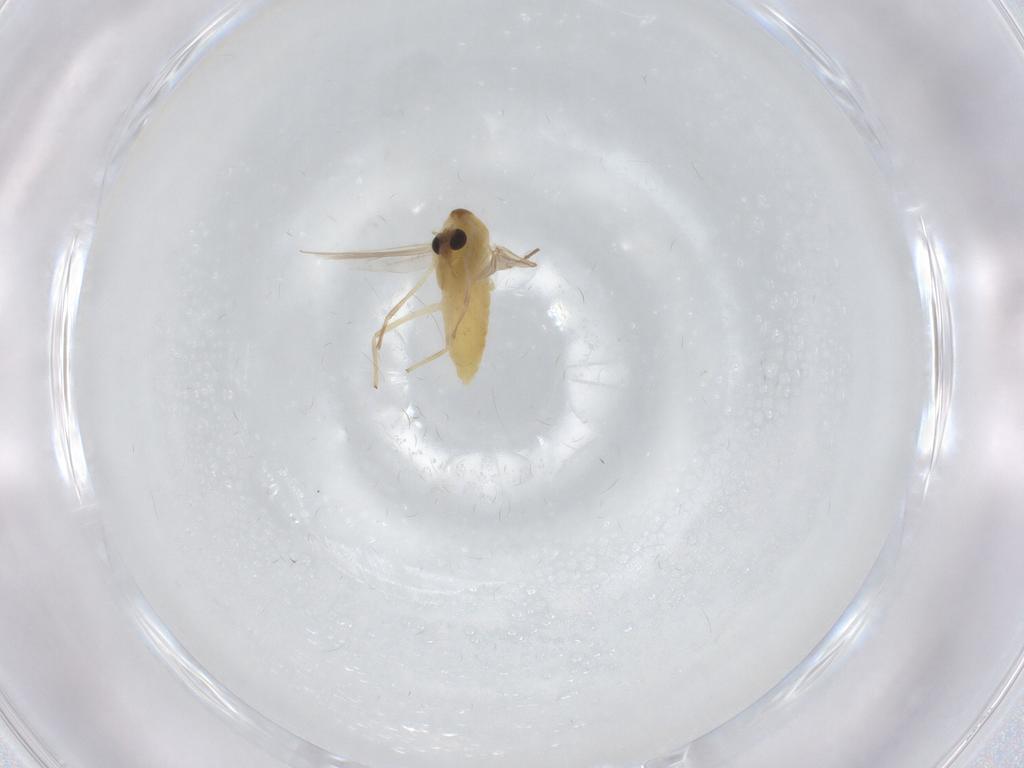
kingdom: Animalia
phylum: Arthropoda
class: Insecta
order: Diptera
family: Chironomidae
